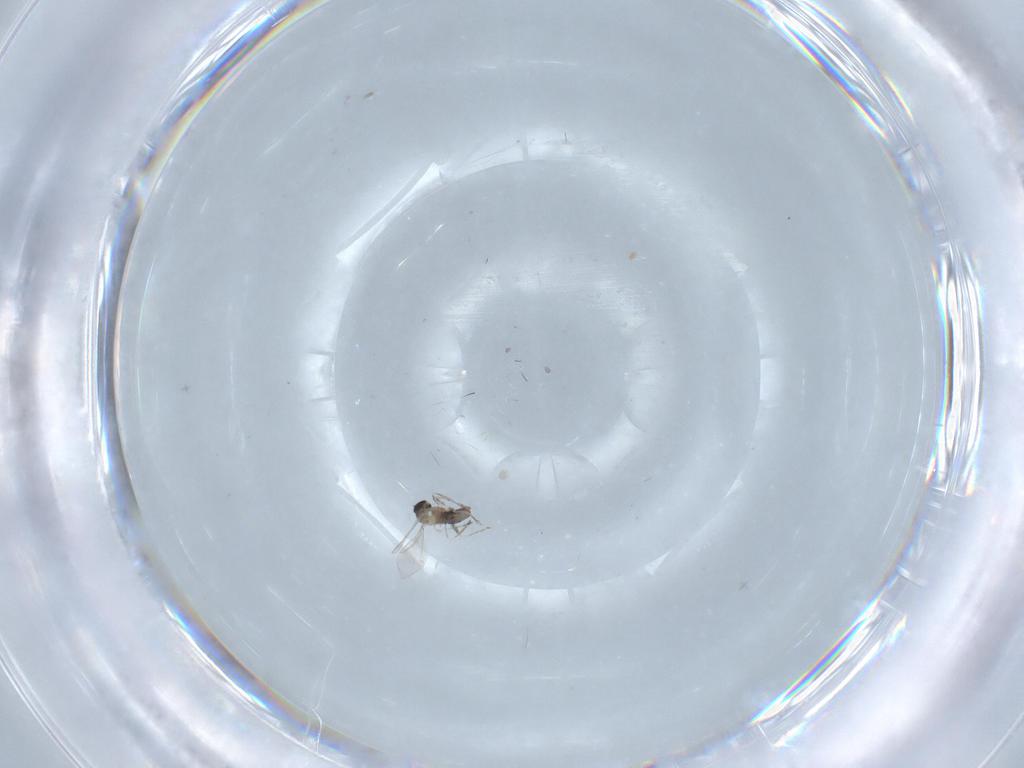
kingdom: Animalia
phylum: Arthropoda
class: Insecta
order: Diptera
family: Cecidomyiidae
